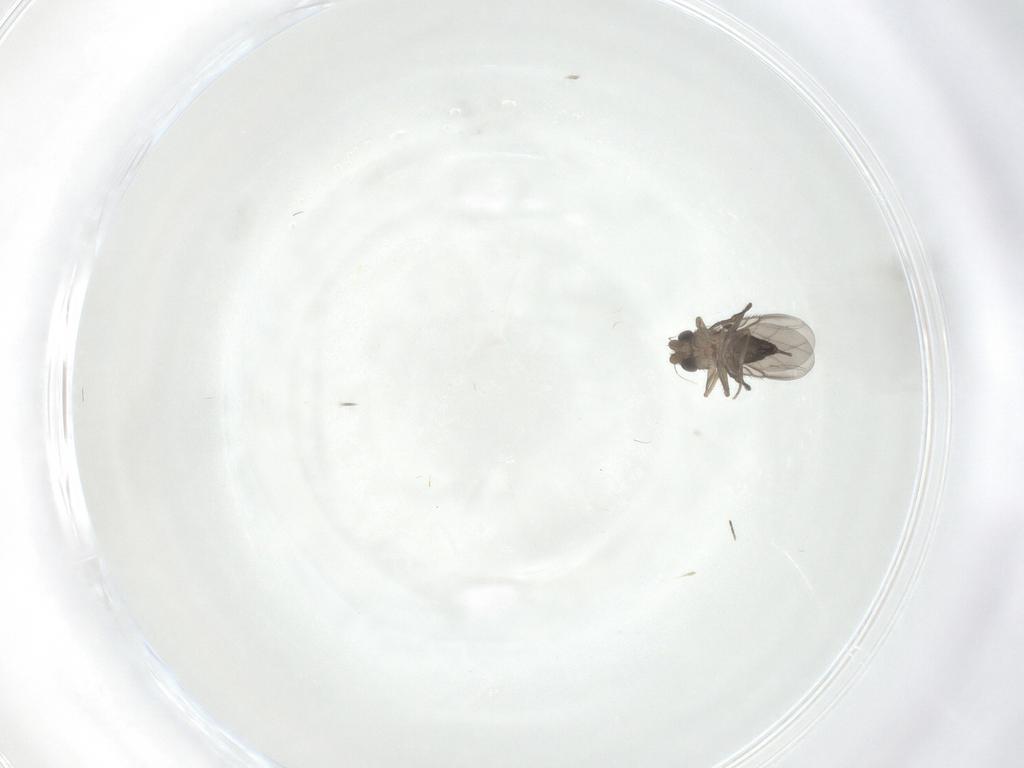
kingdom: Animalia
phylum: Arthropoda
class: Insecta
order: Diptera
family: Phoridae
